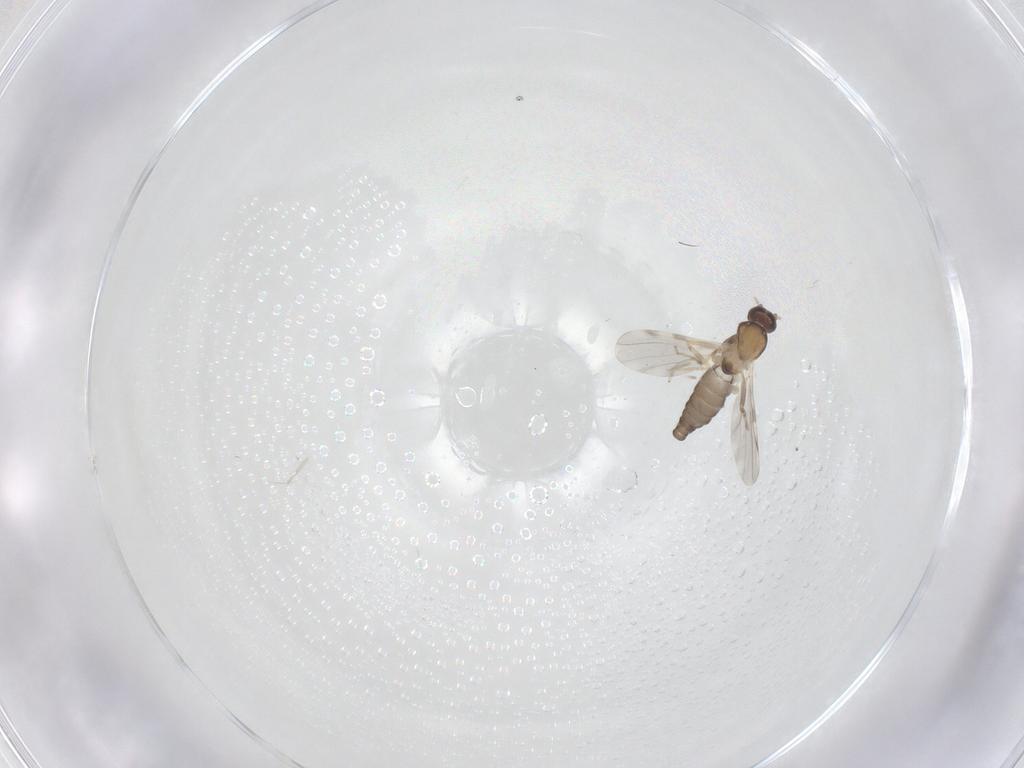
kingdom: Animalia
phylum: Arthropoda
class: Insecta
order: Diptera
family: Ceratopogonidae
